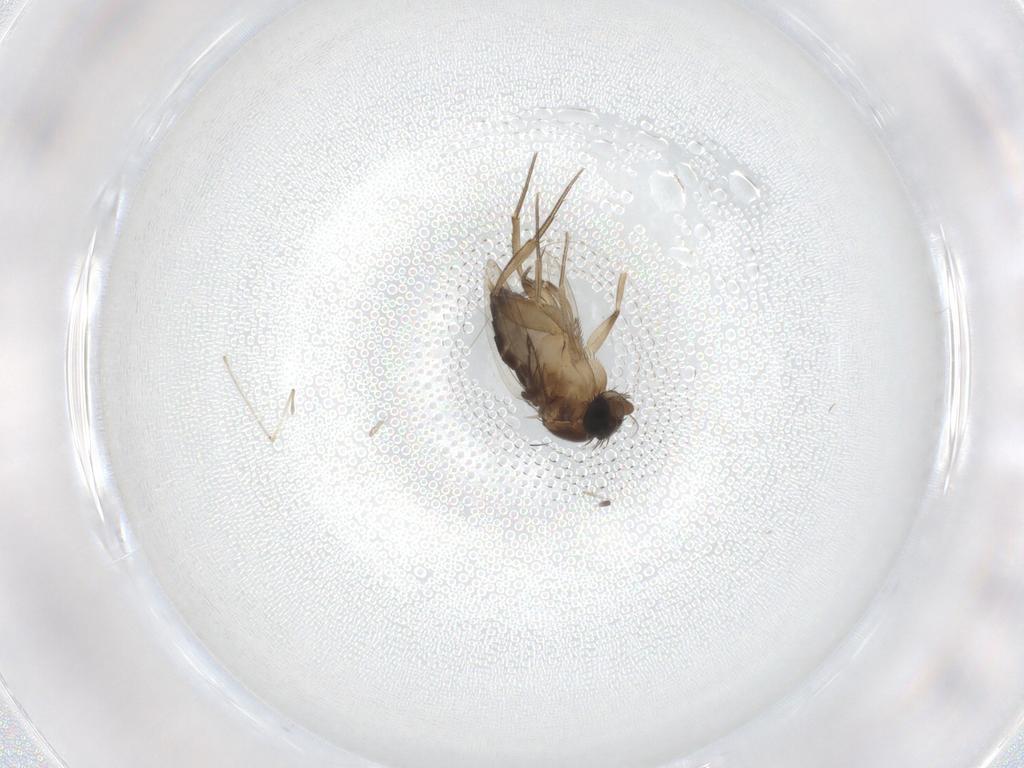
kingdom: Animalia
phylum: Arthropoda
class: Insecta
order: Diptera
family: Phoridae
